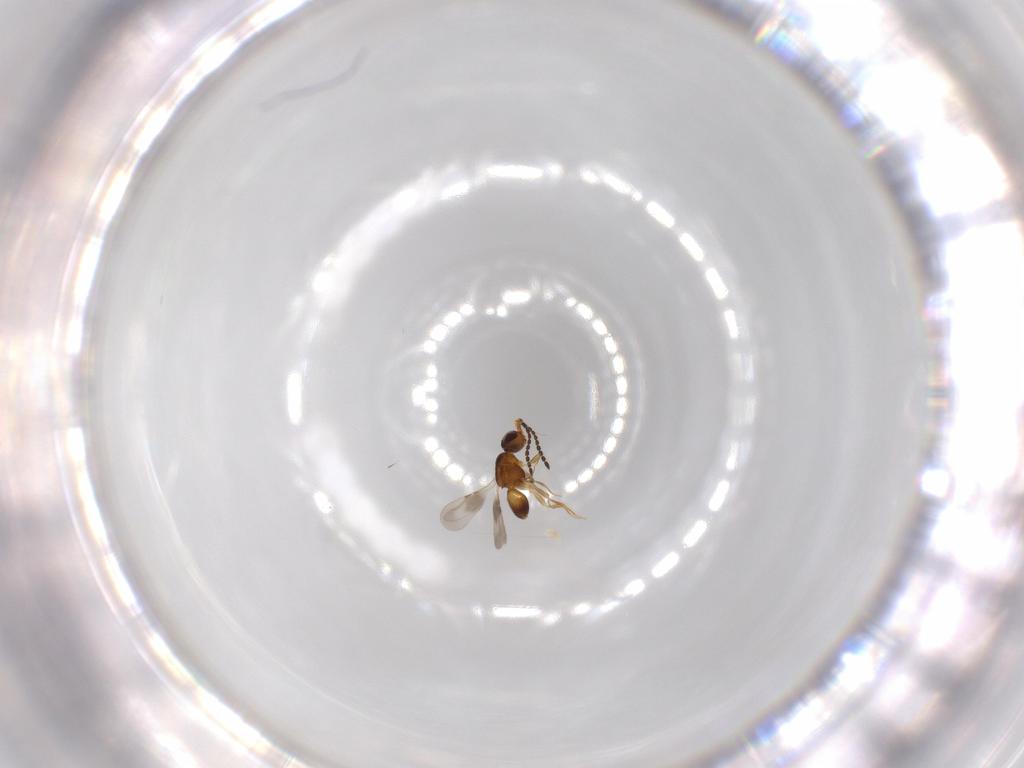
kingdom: Animalia
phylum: Arthropoda
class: Insecta
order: Hymenoptera
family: Ceraphronidae
